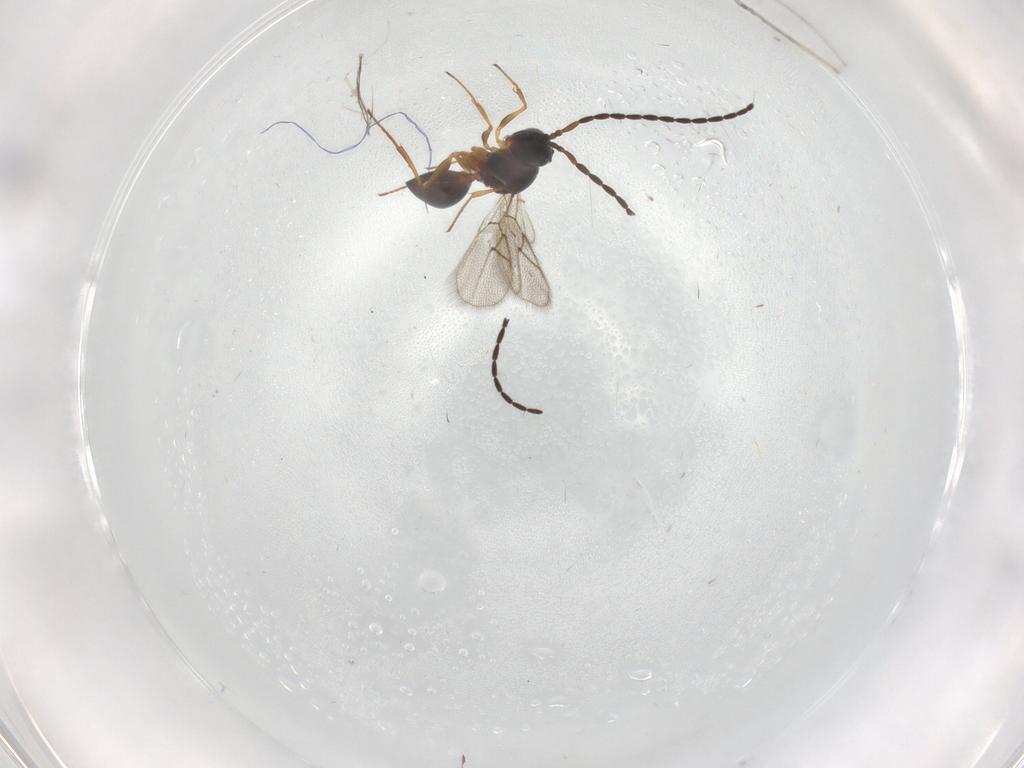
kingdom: Animalia
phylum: Arthropoda
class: Insecta
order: Hymenoptera
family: Figitidae
